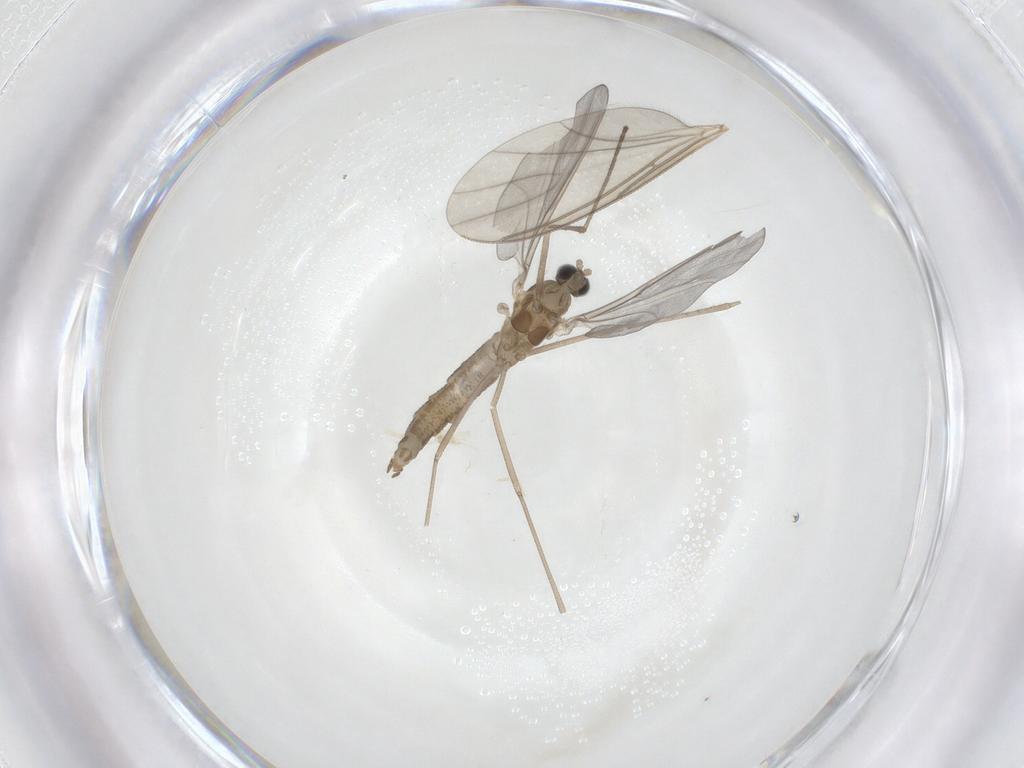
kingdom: Animalia
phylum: Arthropoda
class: Insecta
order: Diptera
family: Cecidomyiidae
